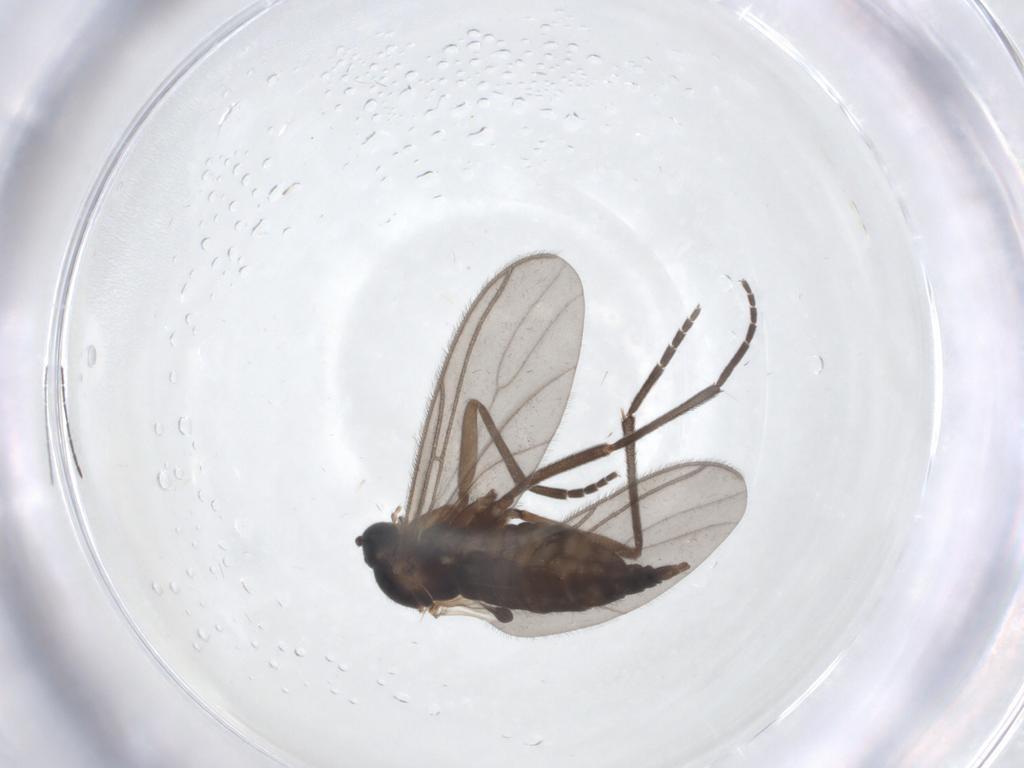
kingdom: Animalia
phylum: Arthropoda
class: Insecta
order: Diptera
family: Sciaridae
